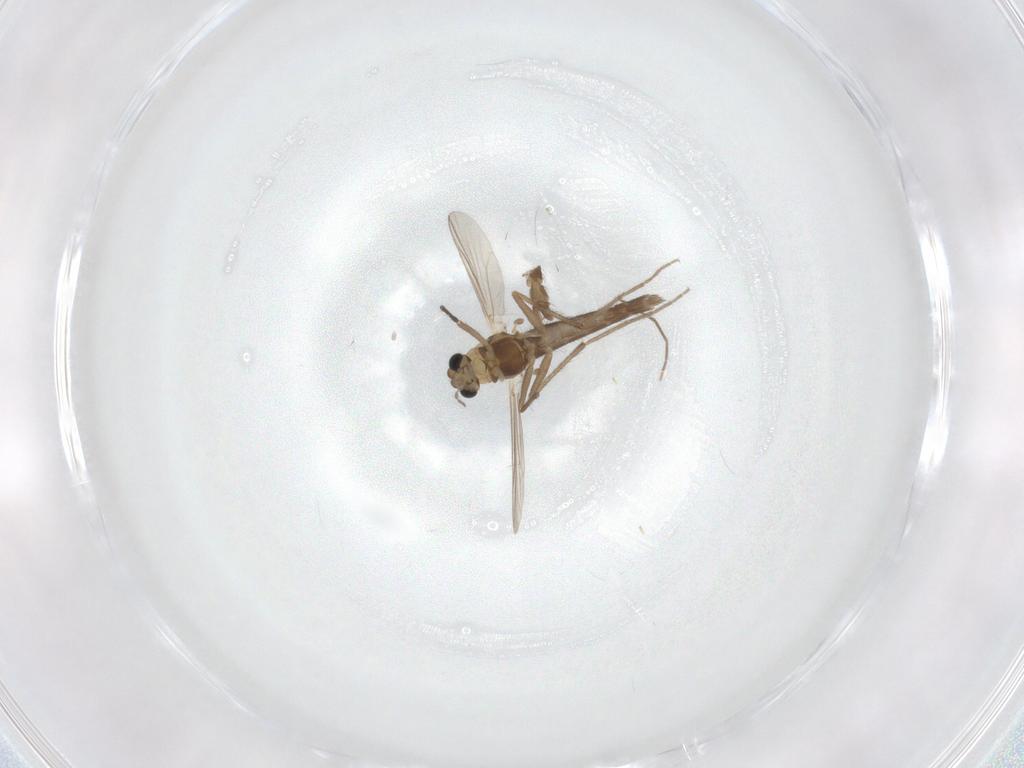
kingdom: Animalia
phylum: Arthropoda
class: Insecta
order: Diptera
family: Chironomidae
